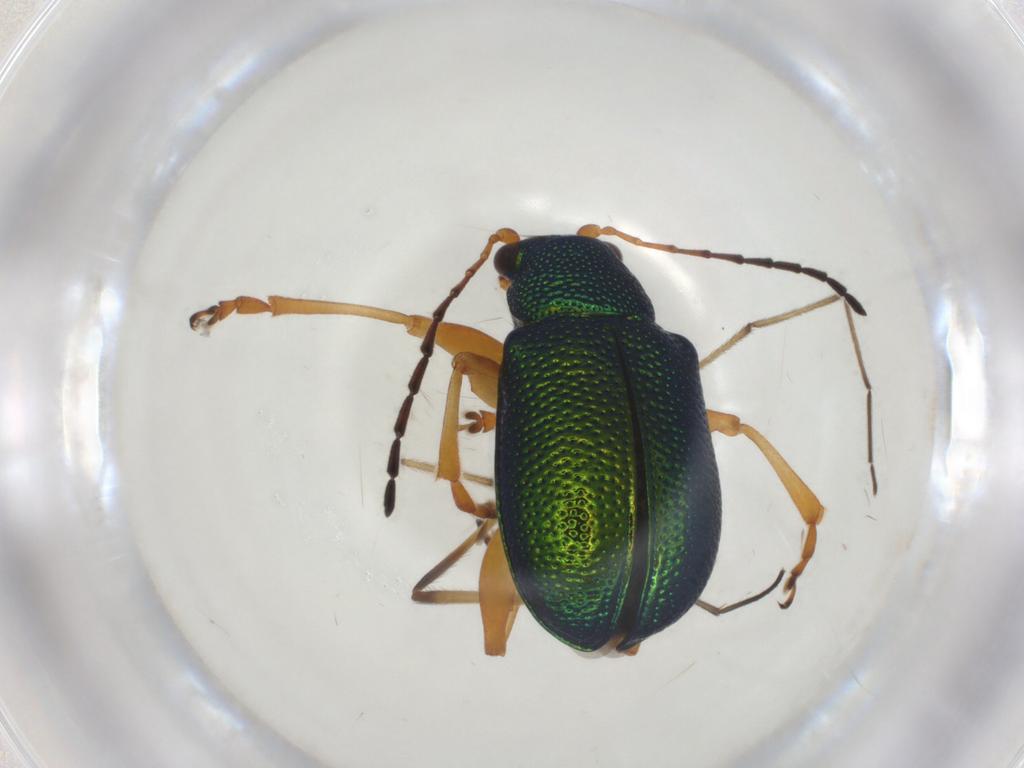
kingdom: Animalia
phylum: Arthropoda
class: Insecta
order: Coleoptera
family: Chrysomelidae
